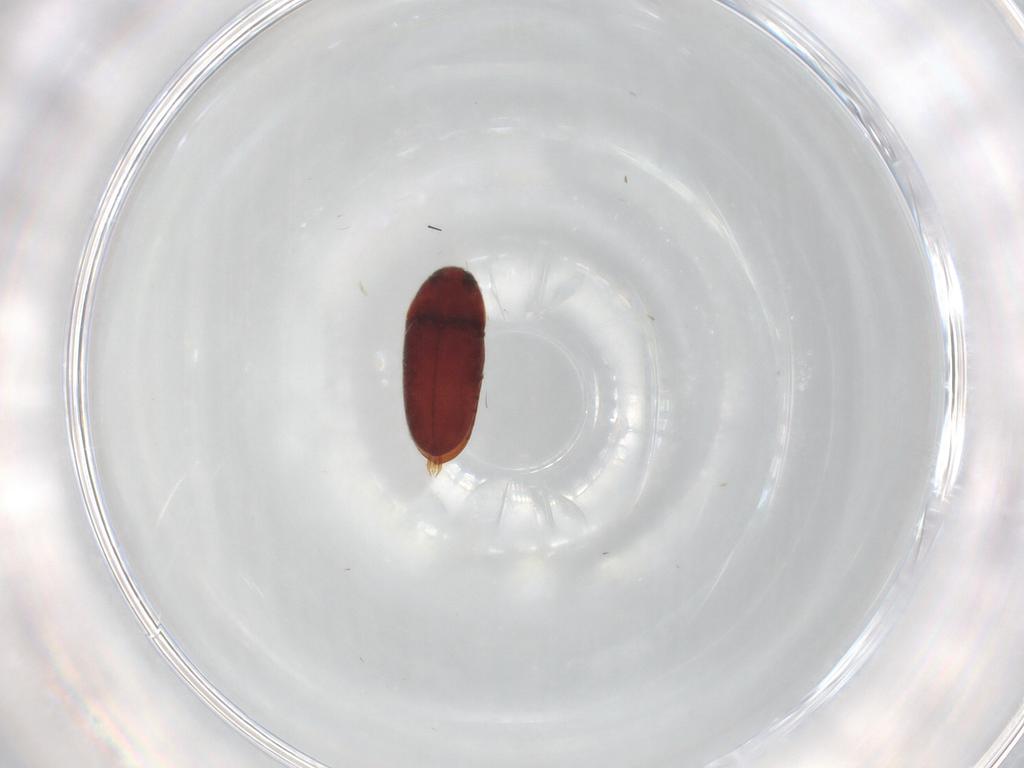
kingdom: Animalia
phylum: Arthropoda
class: Insecta
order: Coleoptera
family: Throscidae
